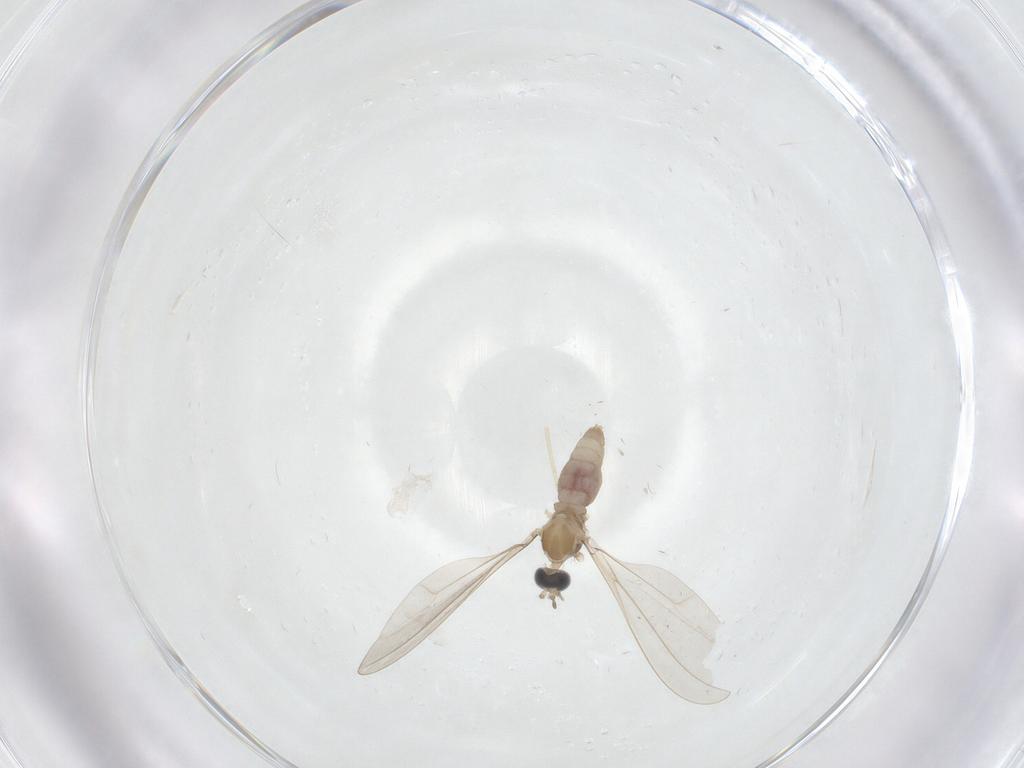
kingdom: Animalia
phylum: Arthropoda
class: Insecta
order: Diptera
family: Cecidomyiidae
